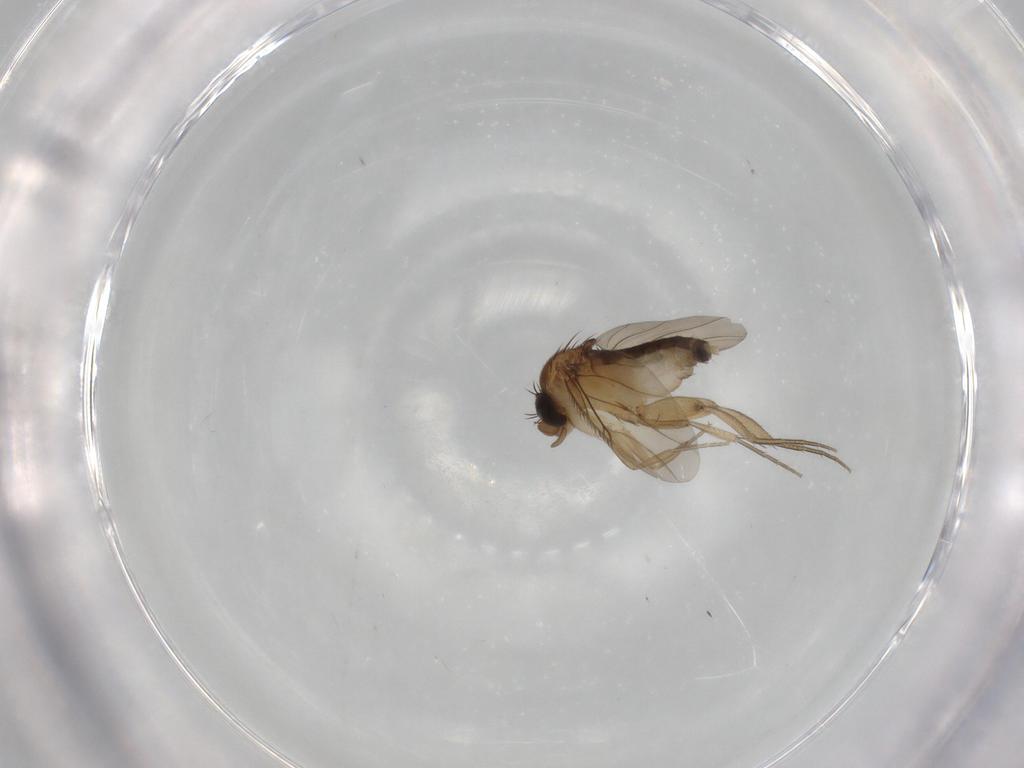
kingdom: Animalia
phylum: Arthropoda
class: Insecta
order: Diptera
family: Phoridae
